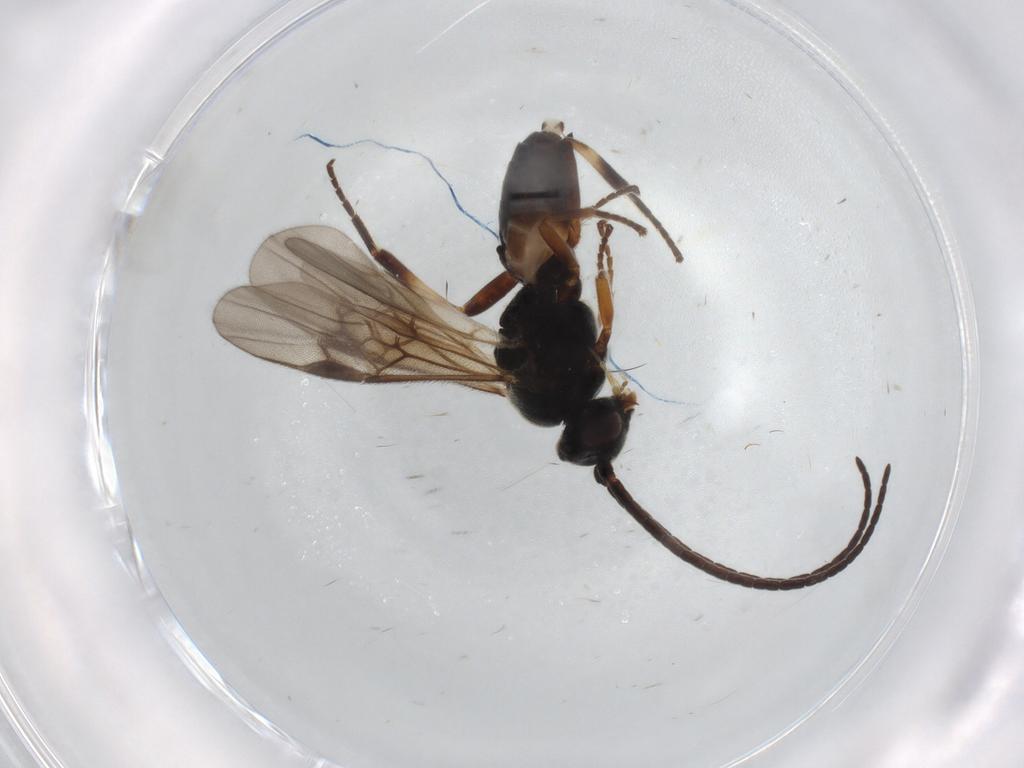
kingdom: Animalia
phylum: Arthropoda
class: Insecta
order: Hymenoptera
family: Braconidae
